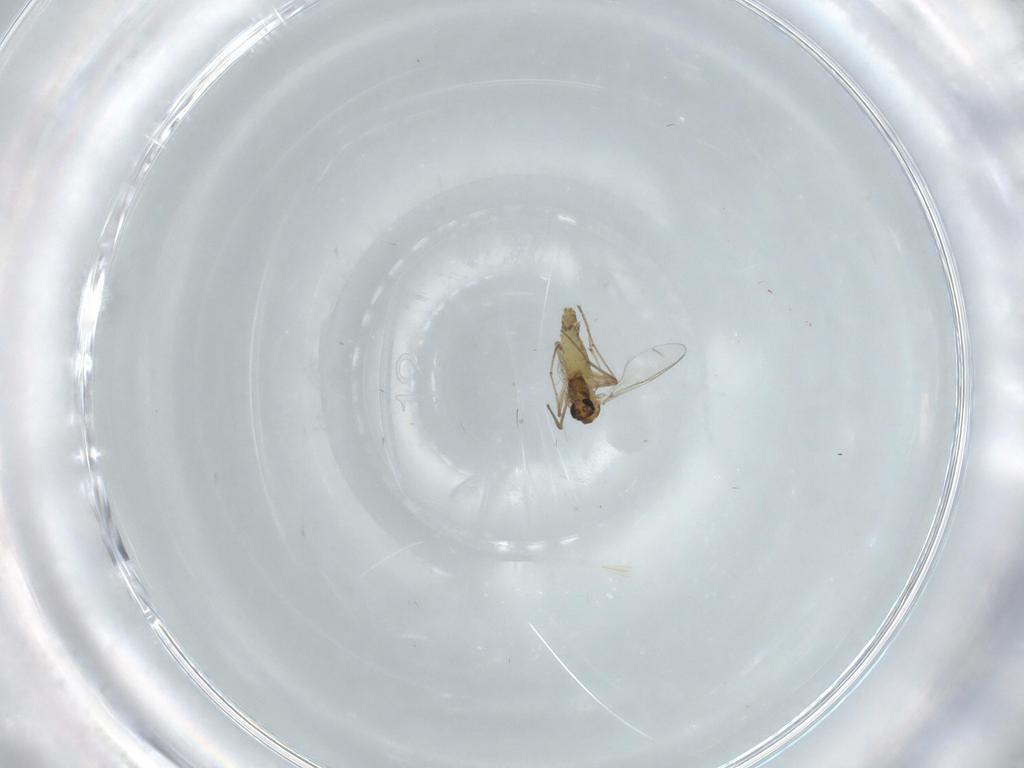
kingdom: Animalia
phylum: Arthropoda
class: Insecta
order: Diptera
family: Chironomidae
